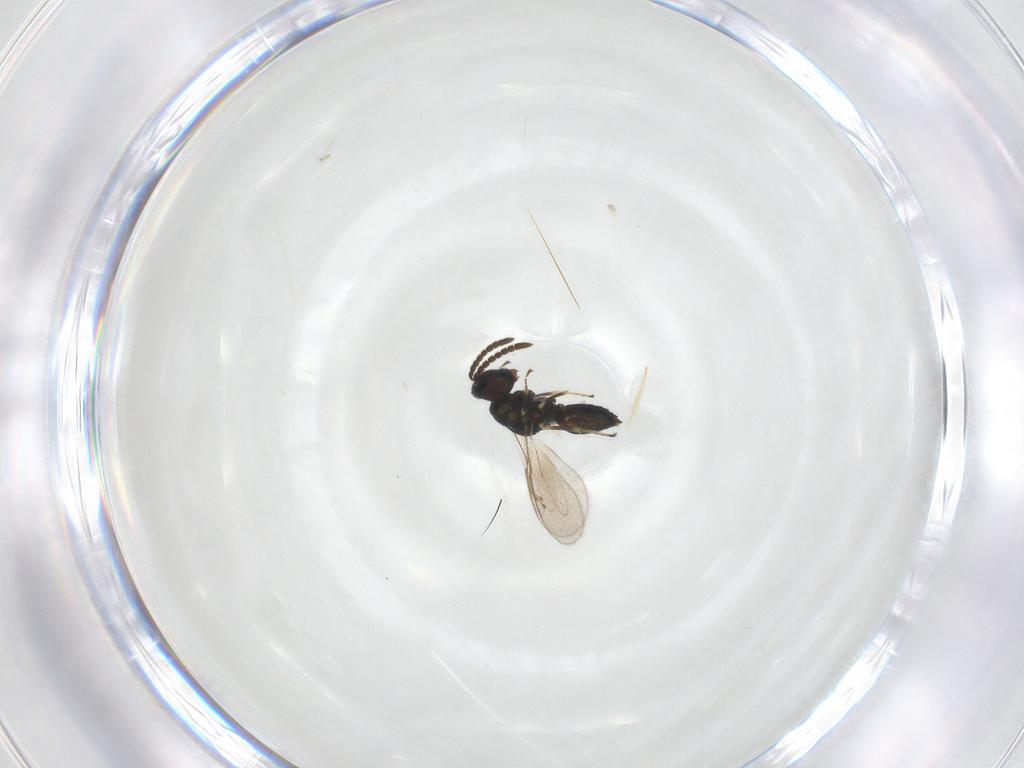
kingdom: Animalia
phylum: Arthropoda
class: Insecta
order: Hymenoptera
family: Pteromalidae
